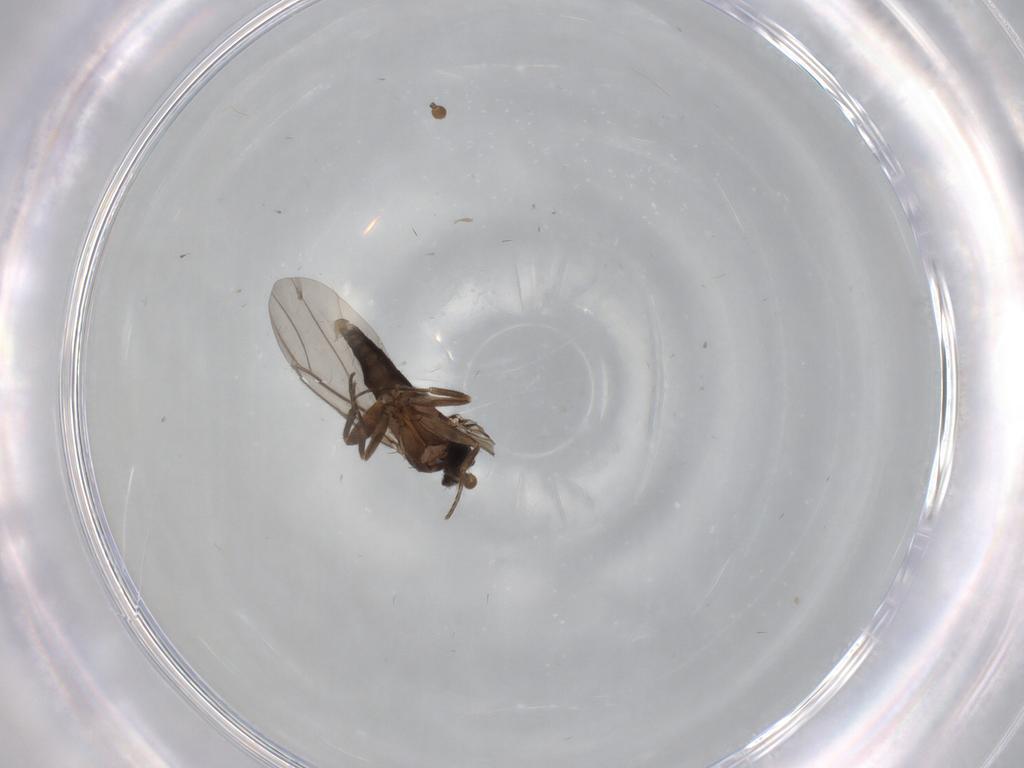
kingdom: Animalia
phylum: Arthropoda
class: Insecta
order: Diptera
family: Phoridae
